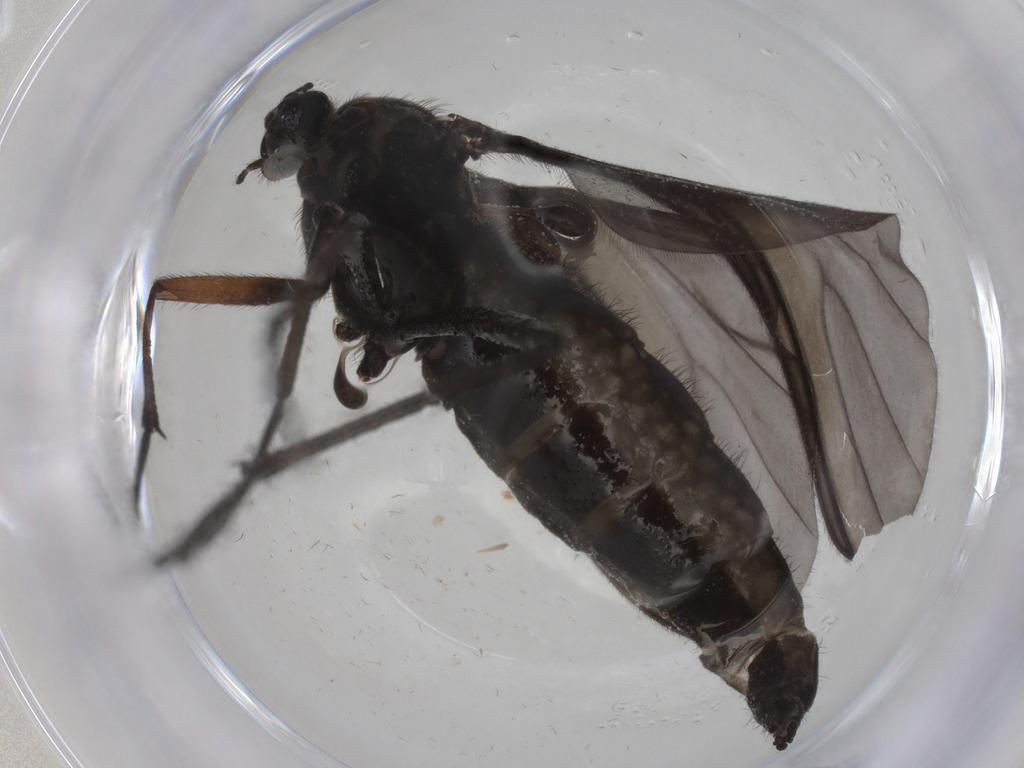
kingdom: Animalia
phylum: Arthropoda
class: Insecta
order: Diptera
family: Sciaridae
